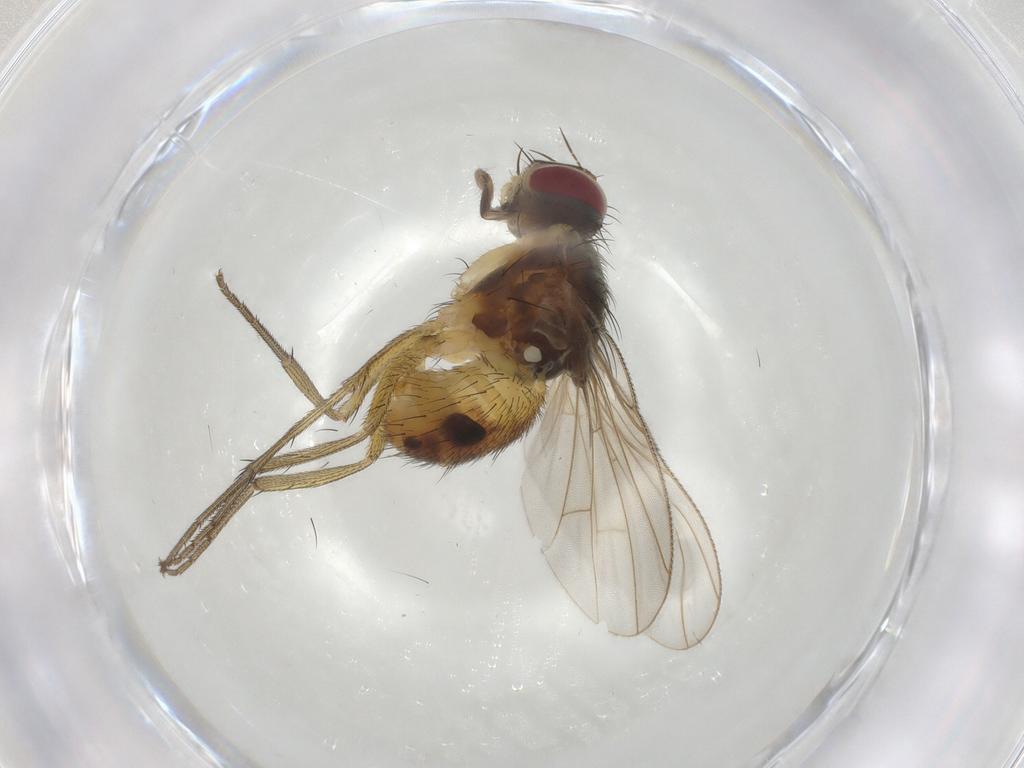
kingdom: Animalia
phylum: Arthropoda
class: Insecta
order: Diptera
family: Muscidae
